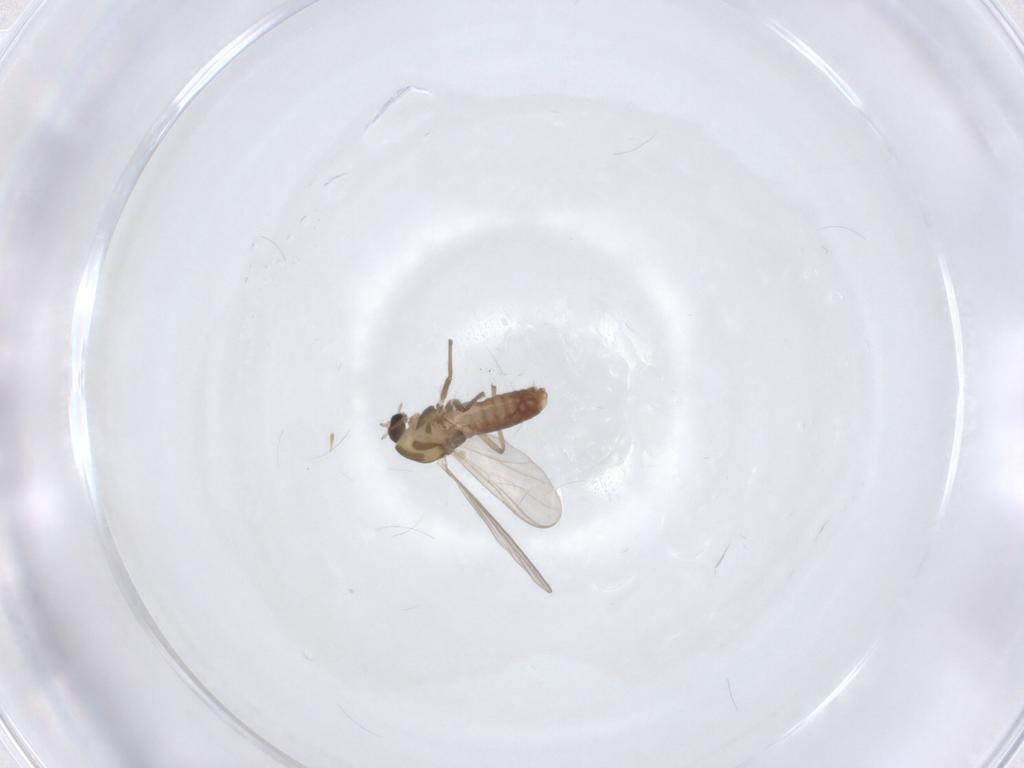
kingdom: Animalia
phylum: Arthropoda
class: Insecta
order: Diptera
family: Chironomidae
